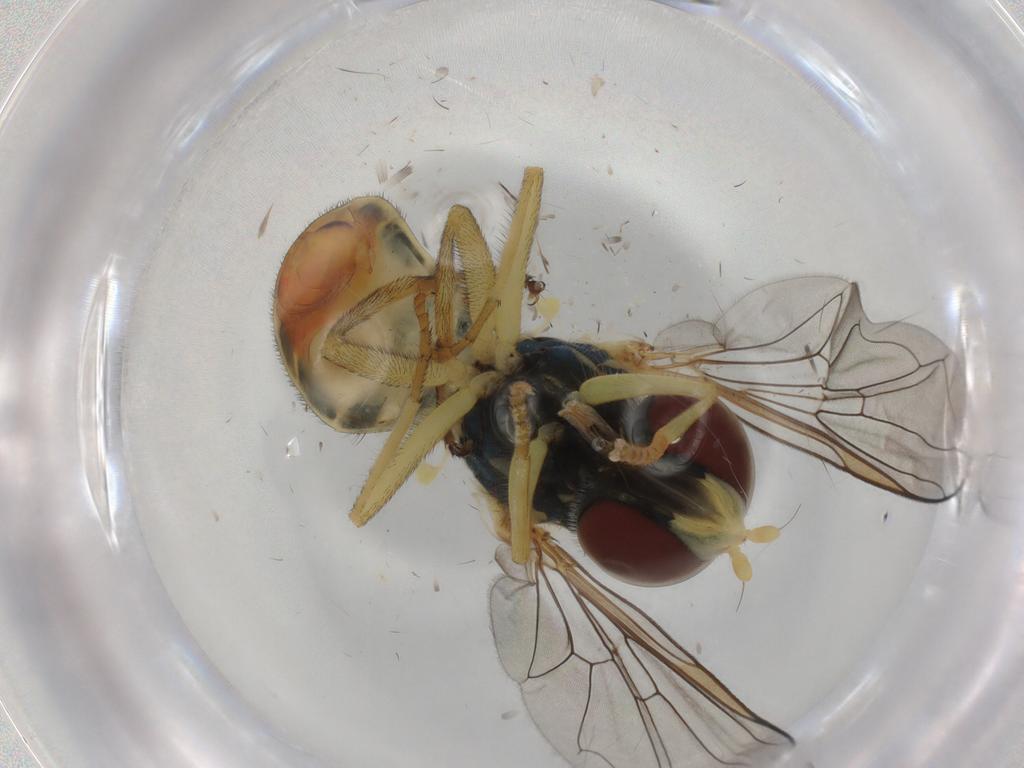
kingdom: Animalia
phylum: Arthropoda
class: Insecta
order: Diptera
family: Syrphidae
